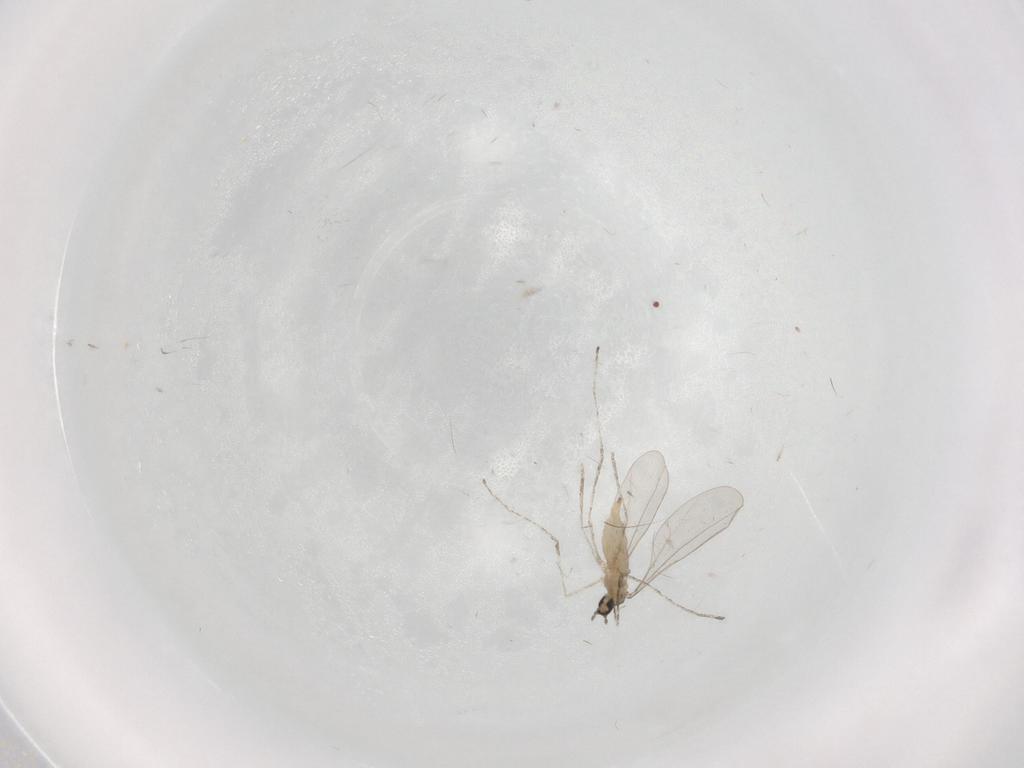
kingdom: Animalia
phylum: Arthropoda
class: Insecta
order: Diptera
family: Cecidomyiidae
